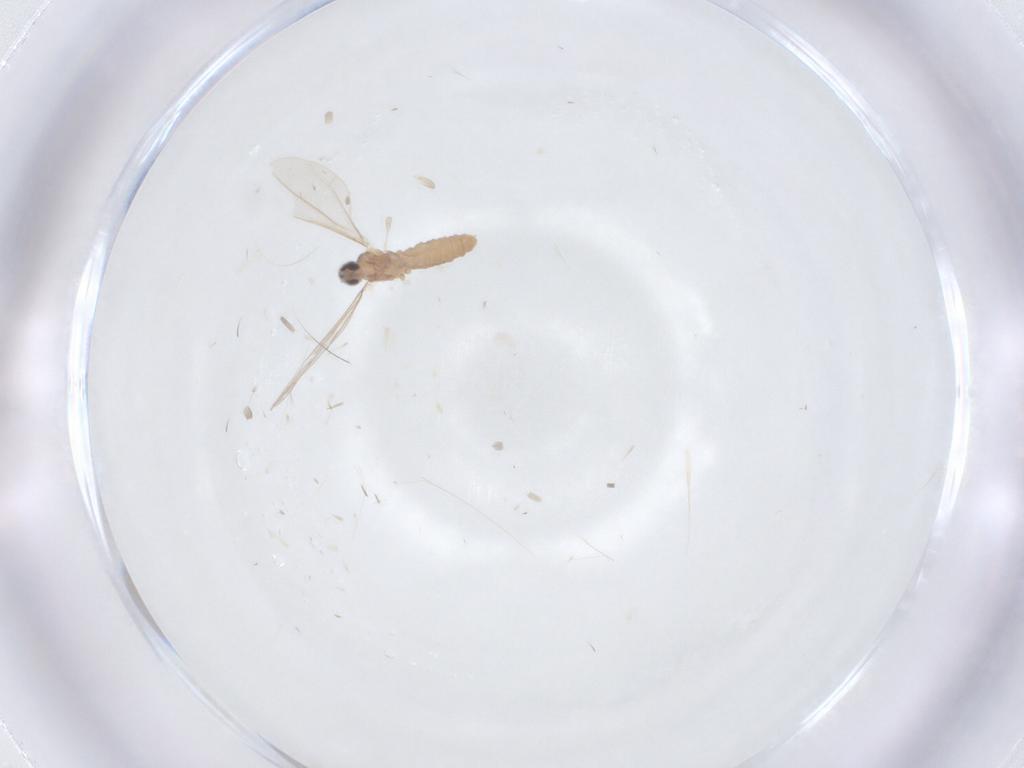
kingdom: Animalia
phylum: Arthropoda
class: Insecta
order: Diptera
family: Cecidomyiidae
